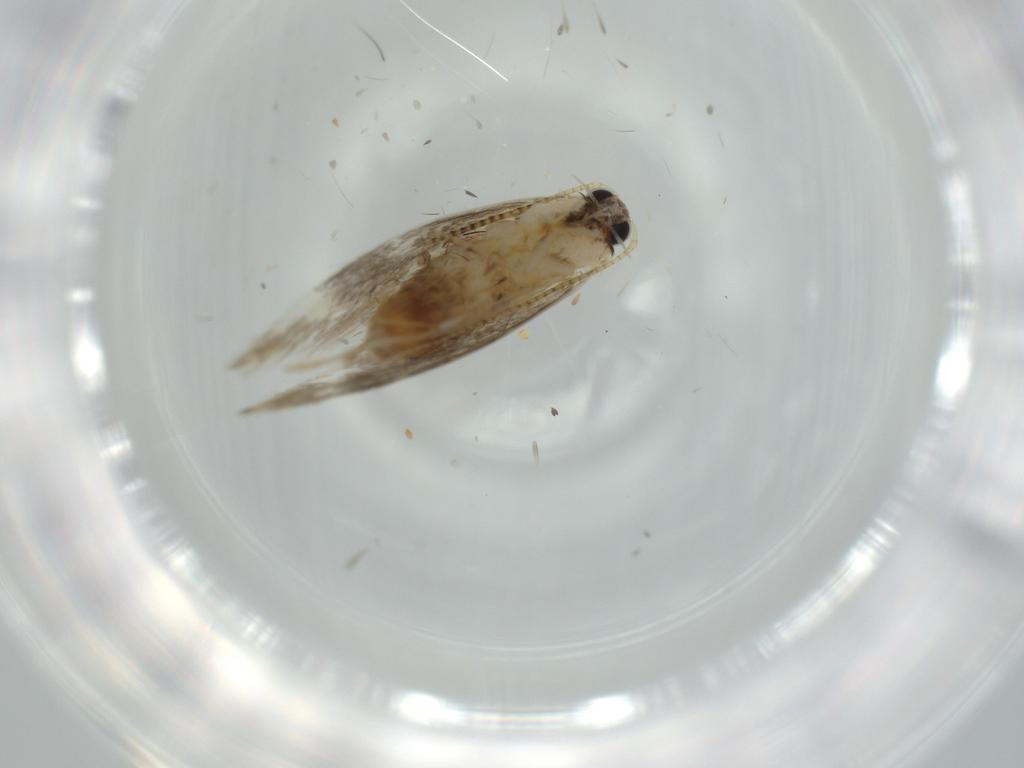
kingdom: Animalia
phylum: Arthropoda
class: Insecta
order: Lepidoptera
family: Tineidae
